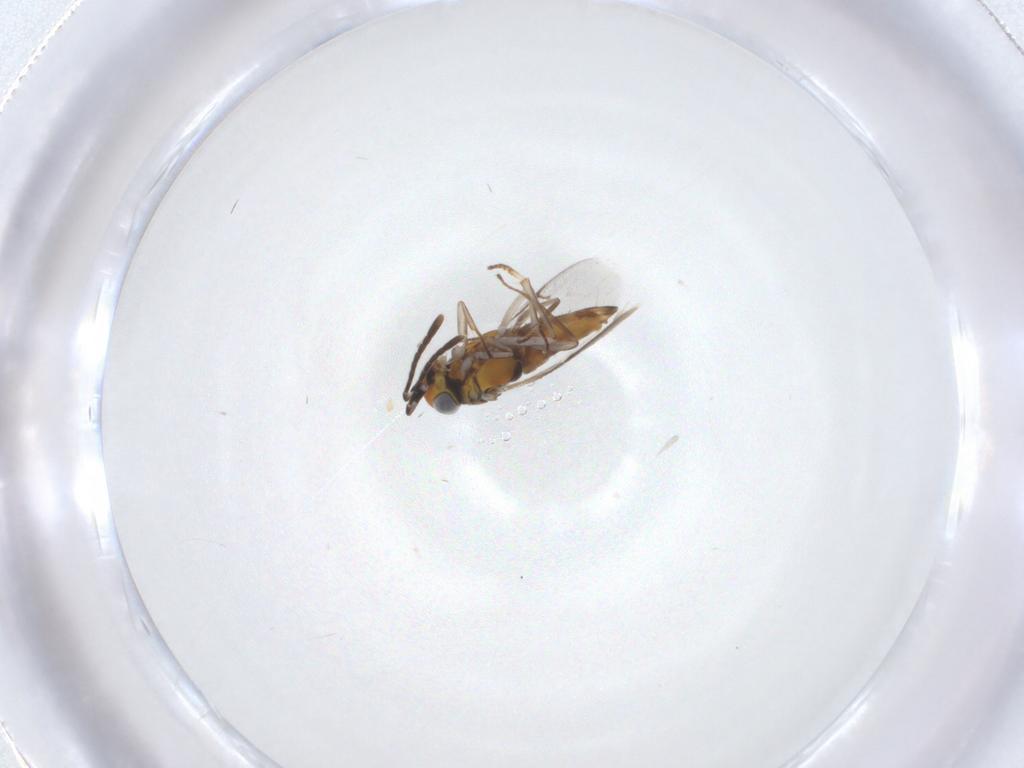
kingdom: Animalia
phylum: Arthropoda
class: Insecta
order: Hymenoptera
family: Encyrtidae
